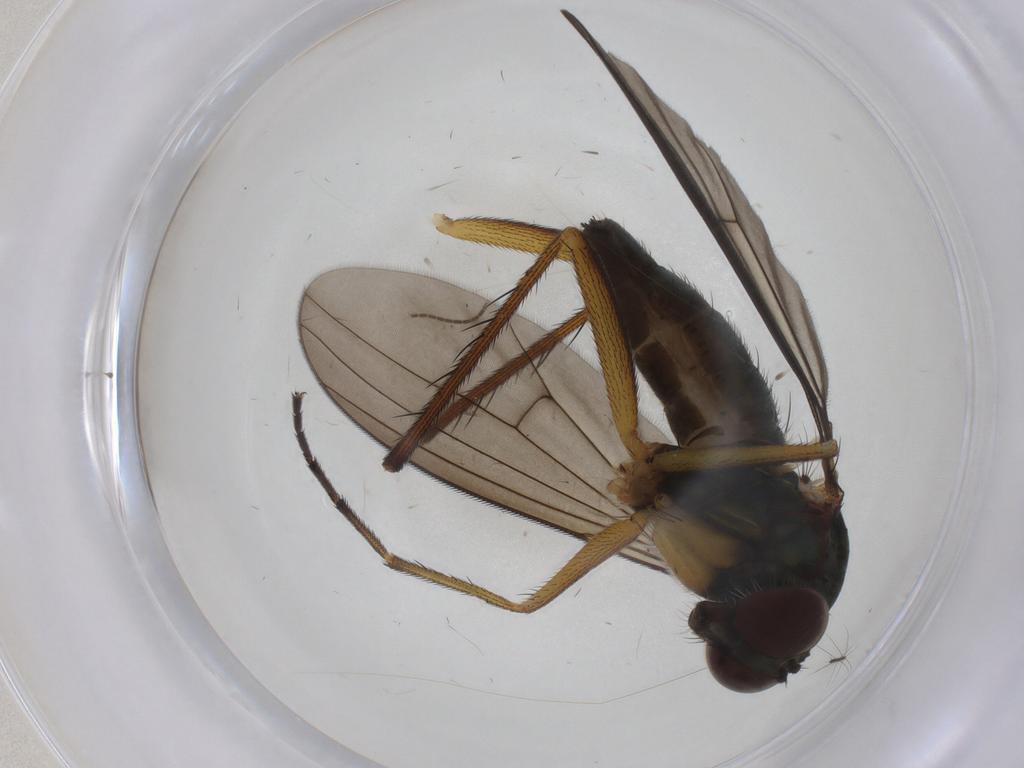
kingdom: Animalia
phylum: Arthropoda
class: Insecta
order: Diptera
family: Dolichopodidae
